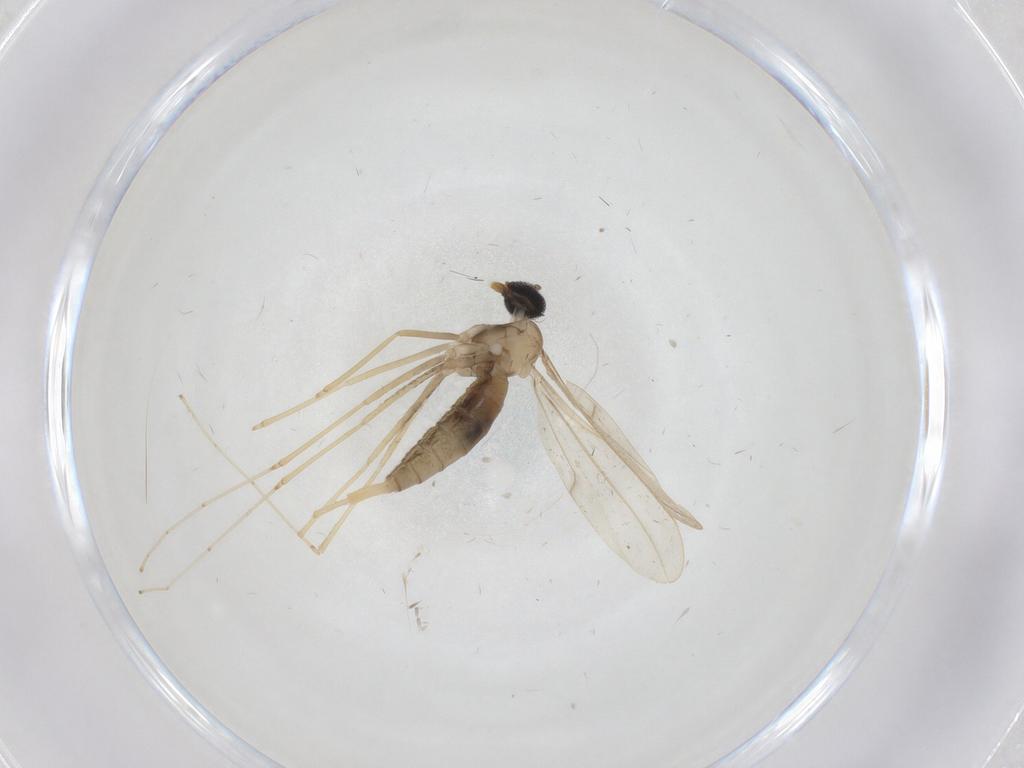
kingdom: Animalia
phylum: Arthropoda
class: Insecta
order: Diptera
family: Cecidomyiidae
